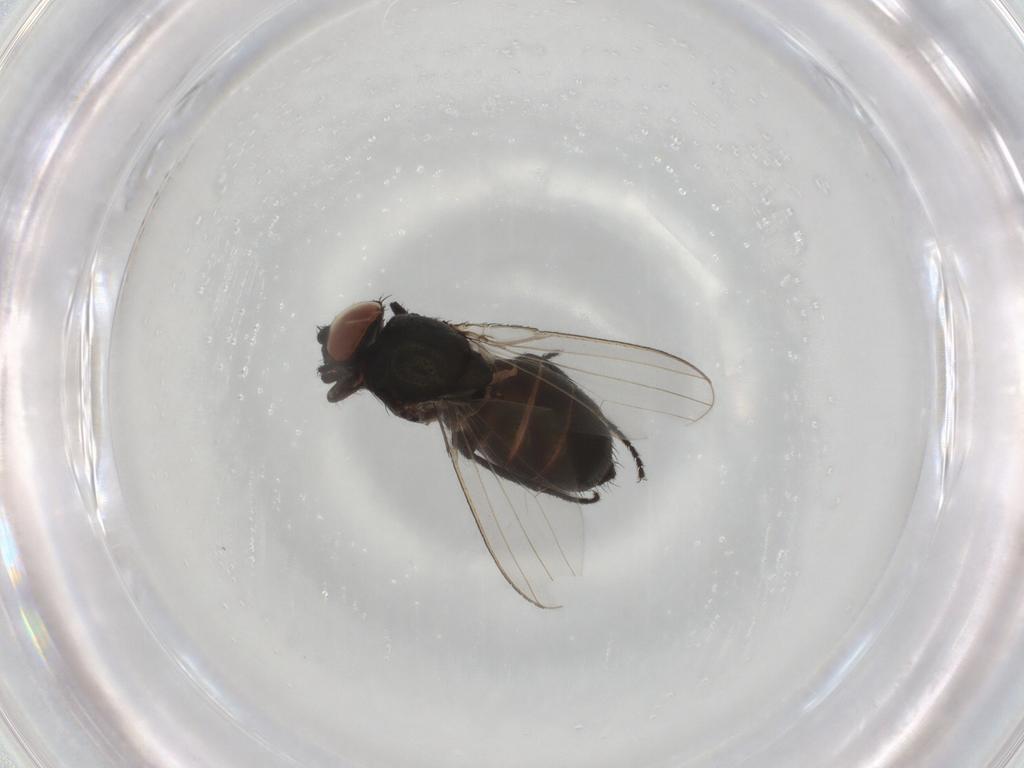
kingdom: Animalia
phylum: Arthropoda
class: Insecta
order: Diptera
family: Milichiidae
